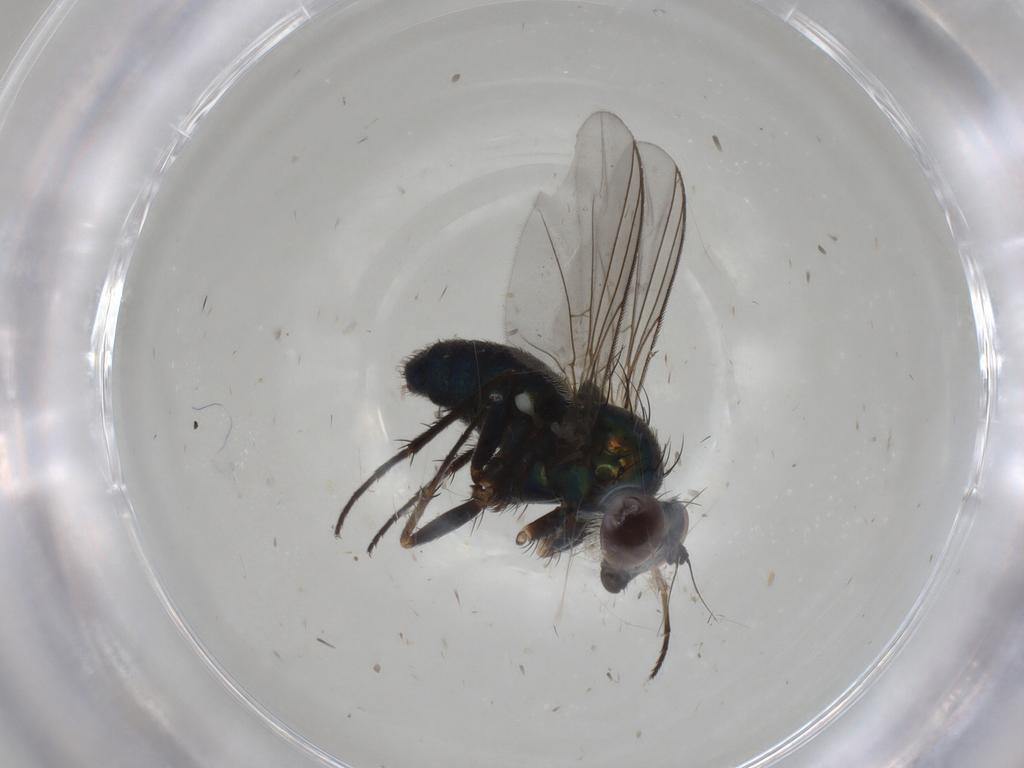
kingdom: Animalia
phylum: Arthropoda
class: Insecta
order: Diptera
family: Dolichopodidae
